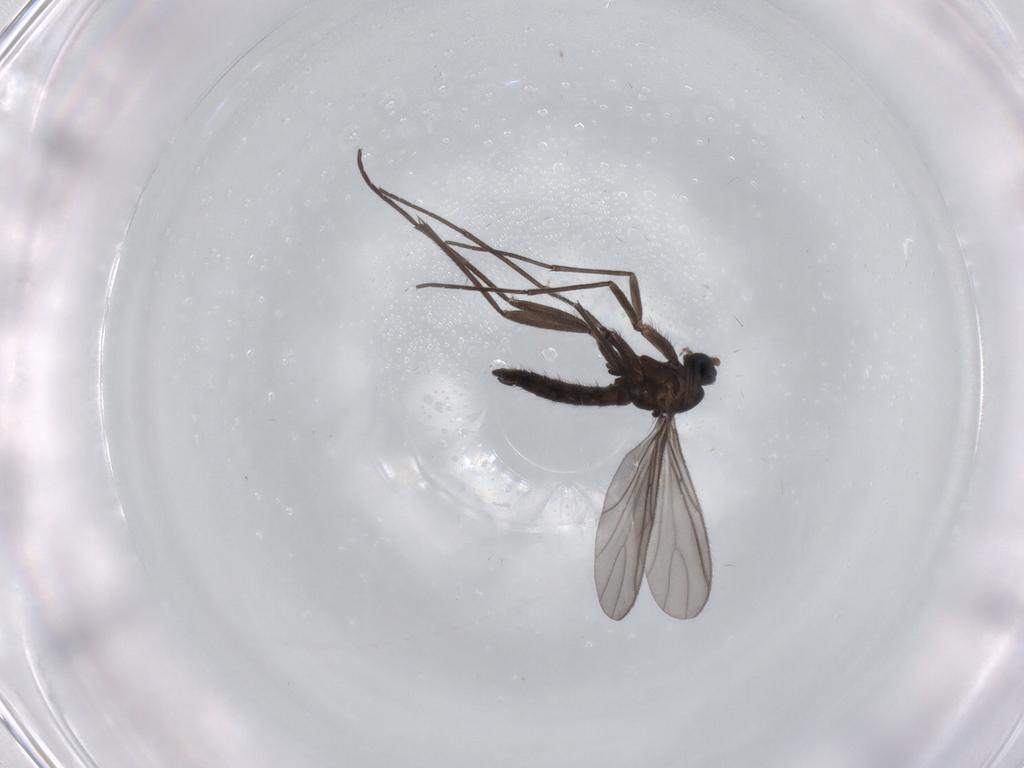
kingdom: Animalia
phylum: Arthropoda
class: Insecta
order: Diptera
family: Sciaridae
